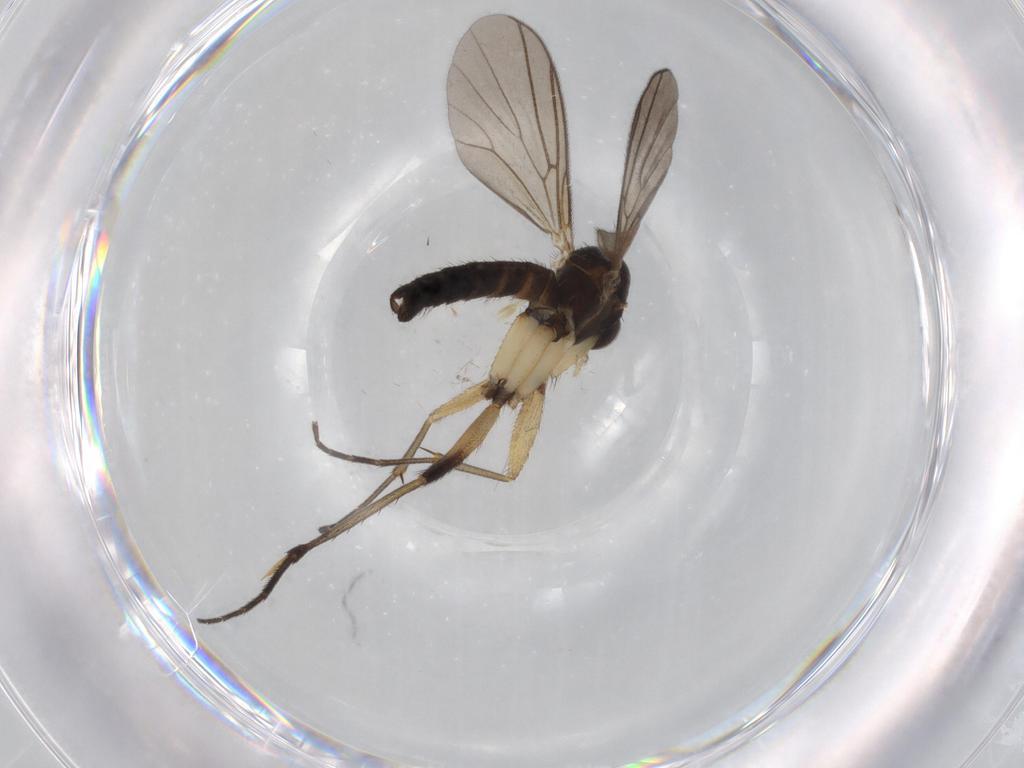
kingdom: Animalia
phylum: Arthropoda
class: Insecta
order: Diptera
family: Mycetophilidae
